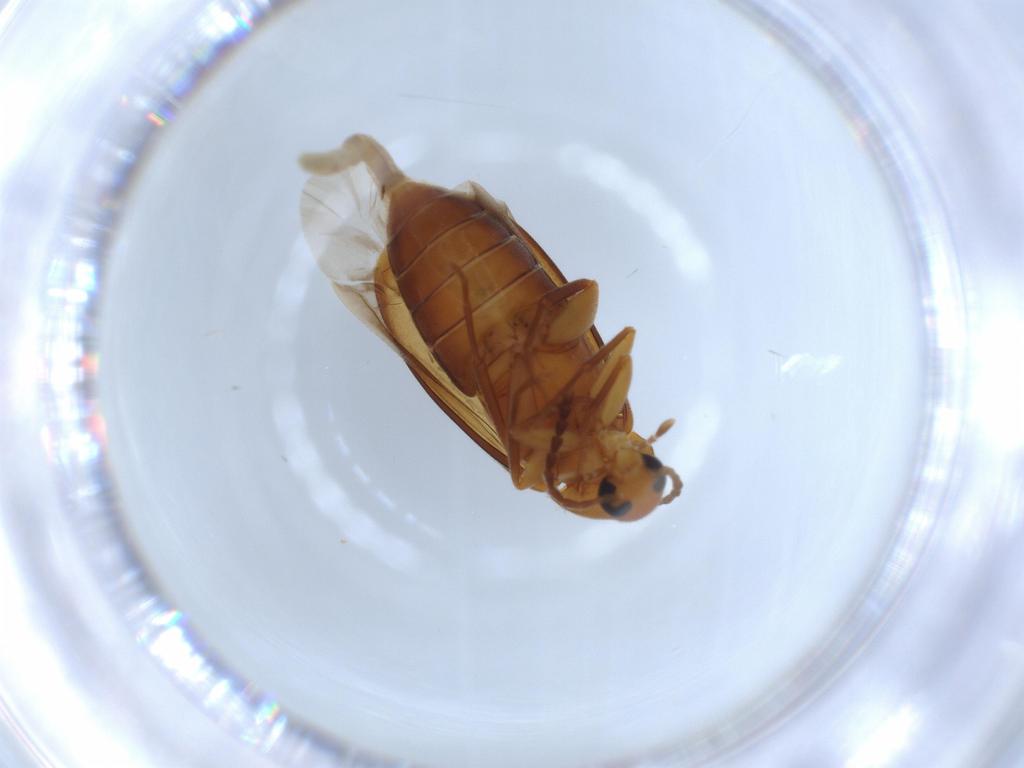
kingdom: Animalia
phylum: Arthropoda
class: Insecta
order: Coleoptera
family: Scraptiidae
